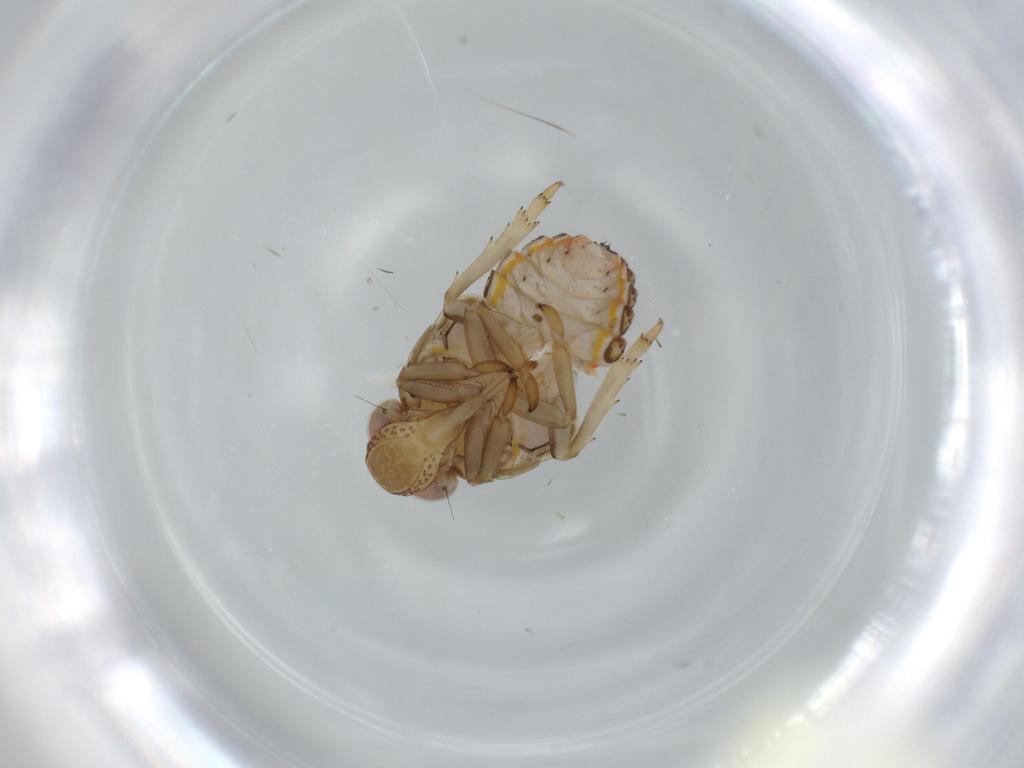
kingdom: Animalia
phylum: Arthropoda
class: Insecta
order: Hemiptera
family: Issidae
